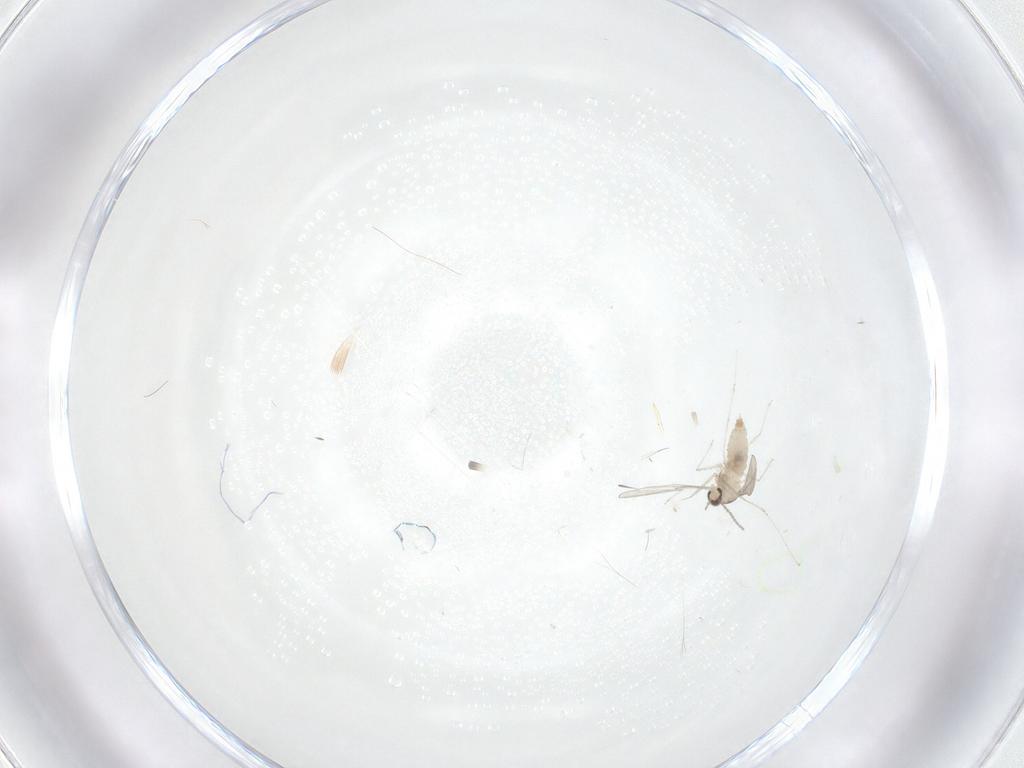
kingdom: Animalia
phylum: Arthropoda
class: Insecta
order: Diptera
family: Cecidomyiidae
